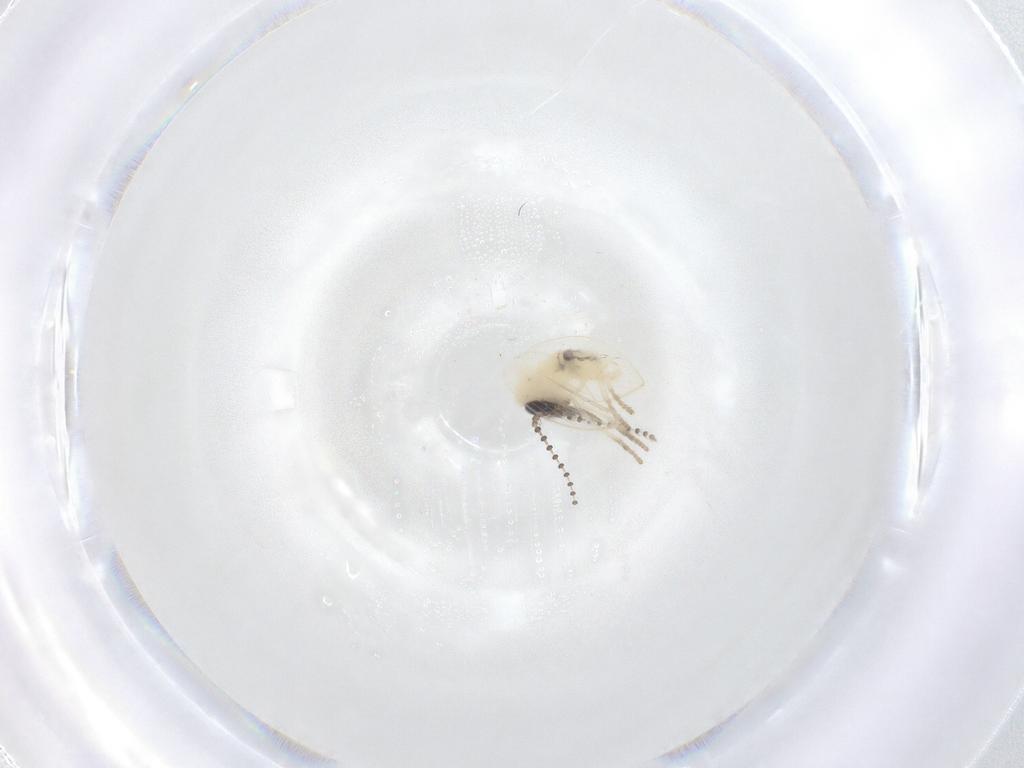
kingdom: Animalia
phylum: Arthropoda
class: Insecta
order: Diptera
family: Psychodidae
